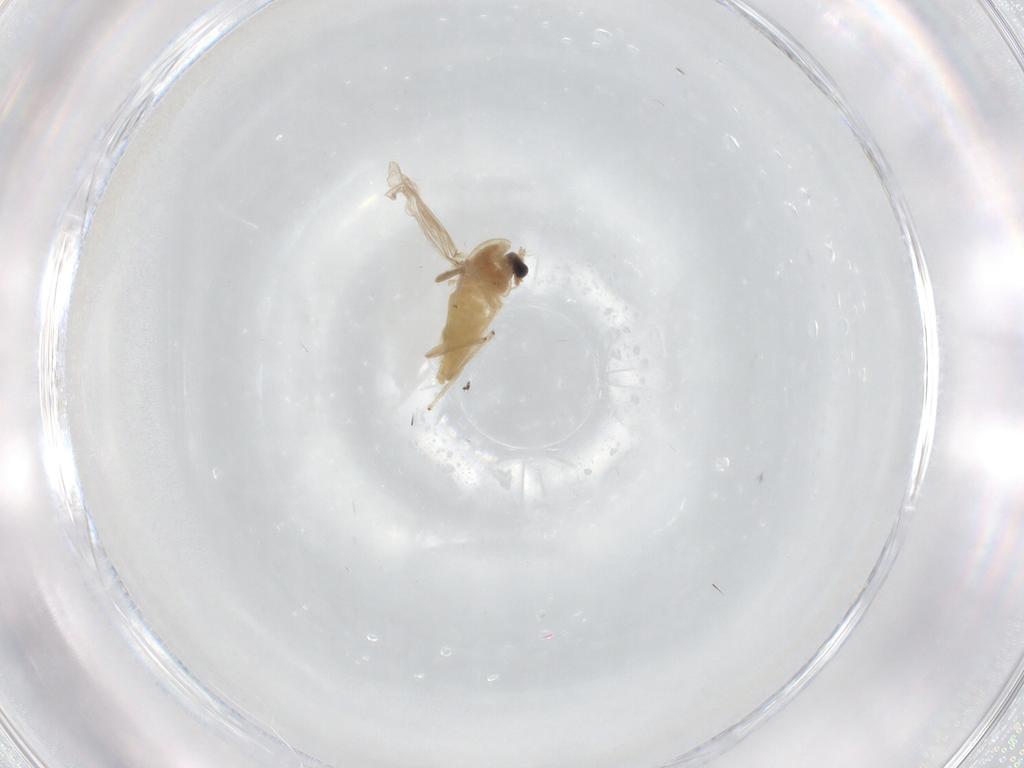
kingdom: Animalia
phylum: Arthropoda
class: Insecta
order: Diptera
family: Chironomidae
